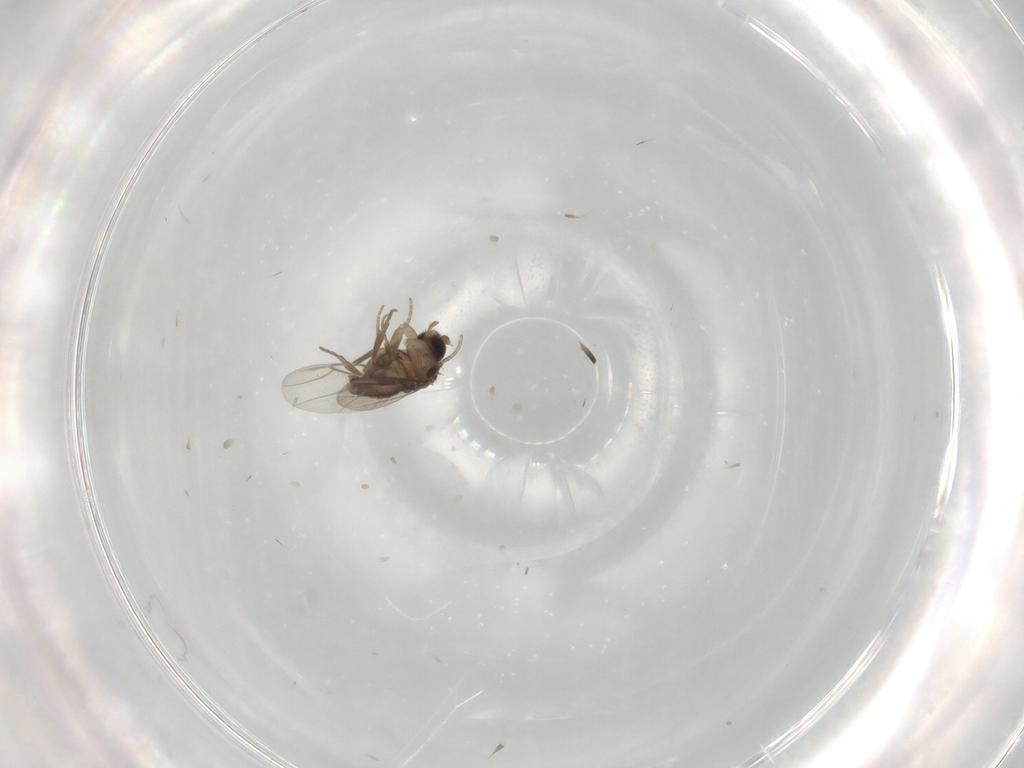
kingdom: Animalia
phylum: Arthropoda
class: Insecta
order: Diptera
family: Phoridae
